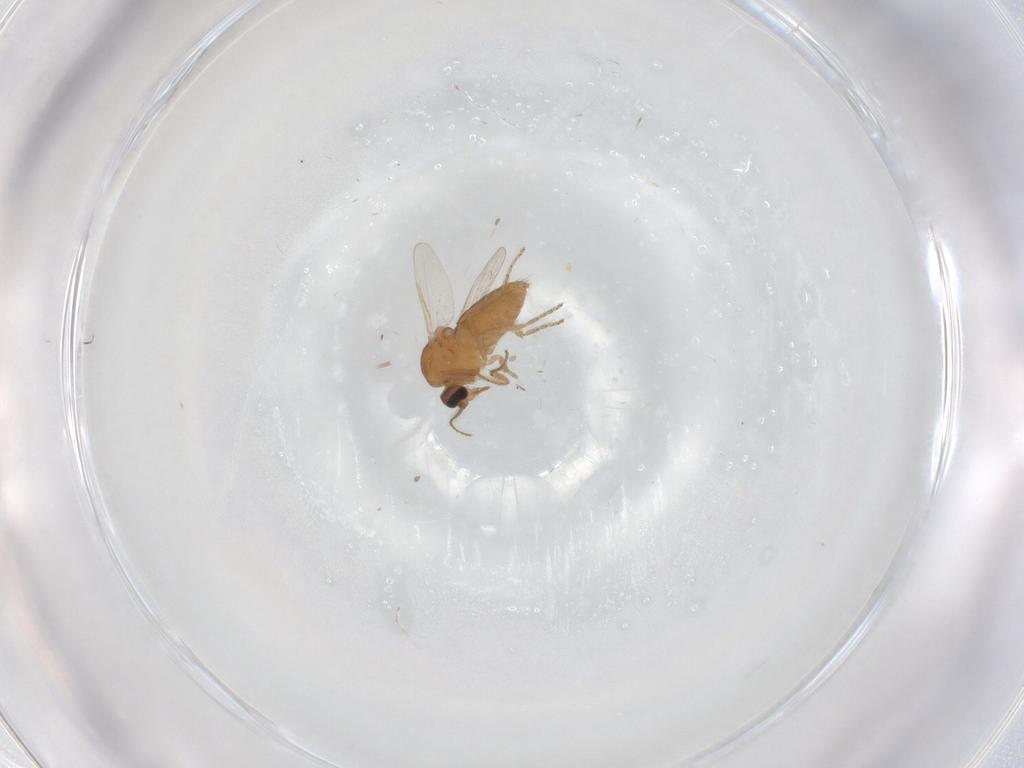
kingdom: Animalia
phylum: Arthropoda
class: Insecta
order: Diptera
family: Ceratopogonidae
